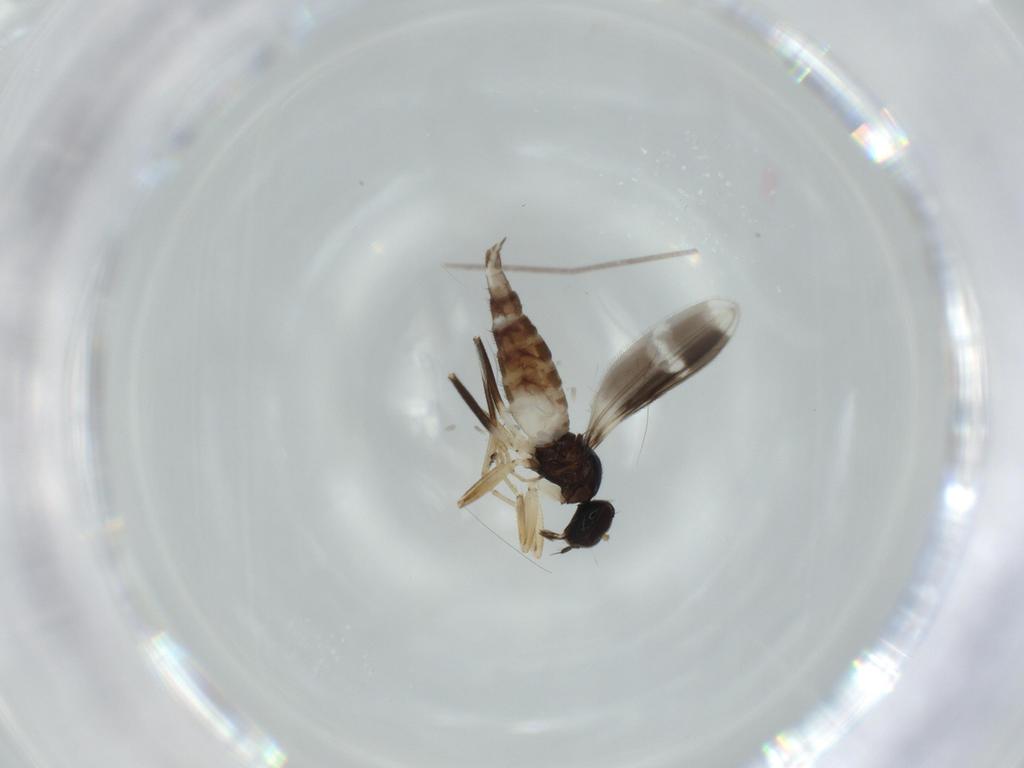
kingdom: Animalia
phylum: Arthropoda
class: Insecta
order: Diptera
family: Hybotidae
